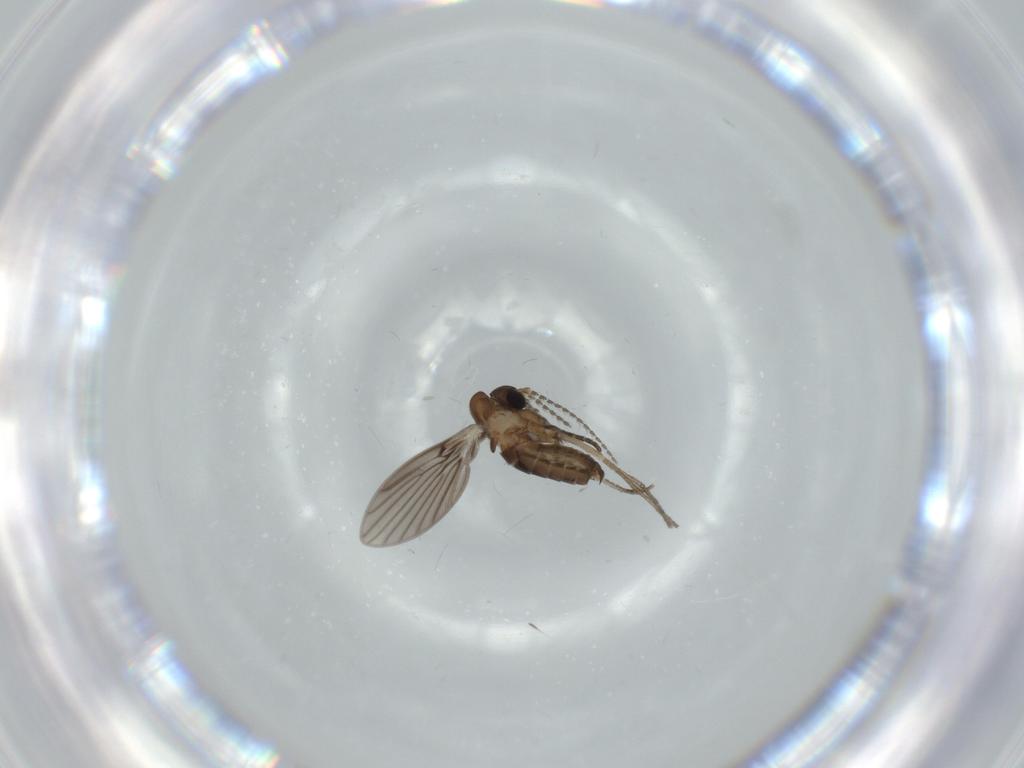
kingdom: Animalia
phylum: Arthropoda
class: Insecta
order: Diptera
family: Psychodidae
